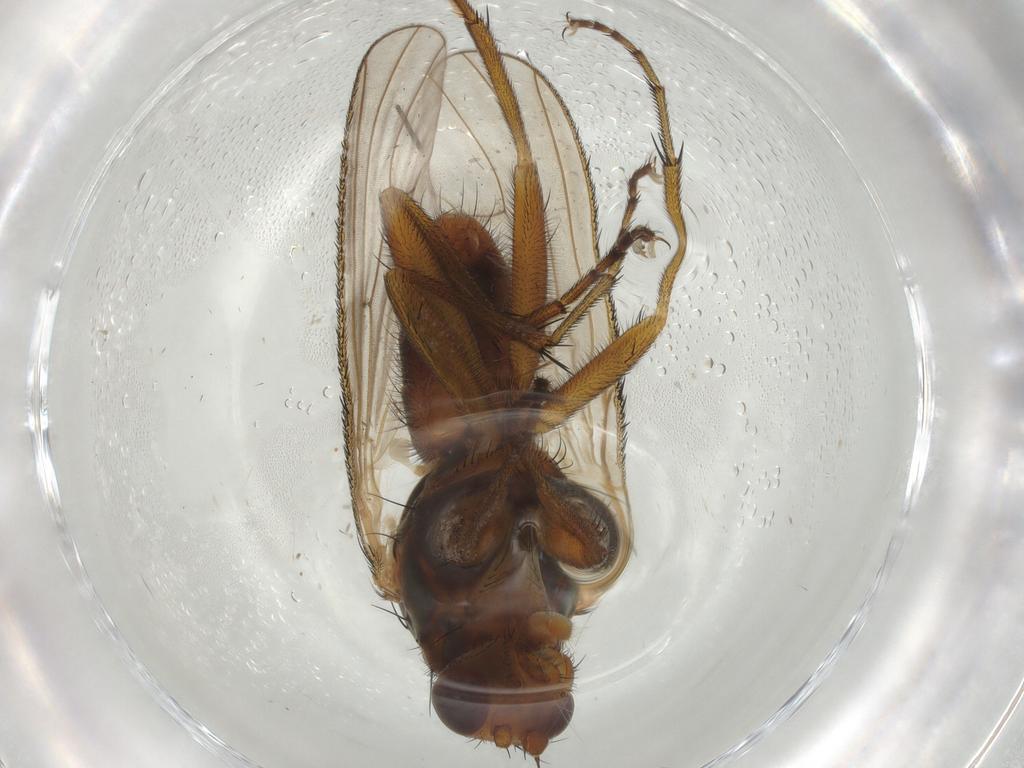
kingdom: Animalia
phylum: Arthropoda
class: Insecta
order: Diptera
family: Heleomyzidae
